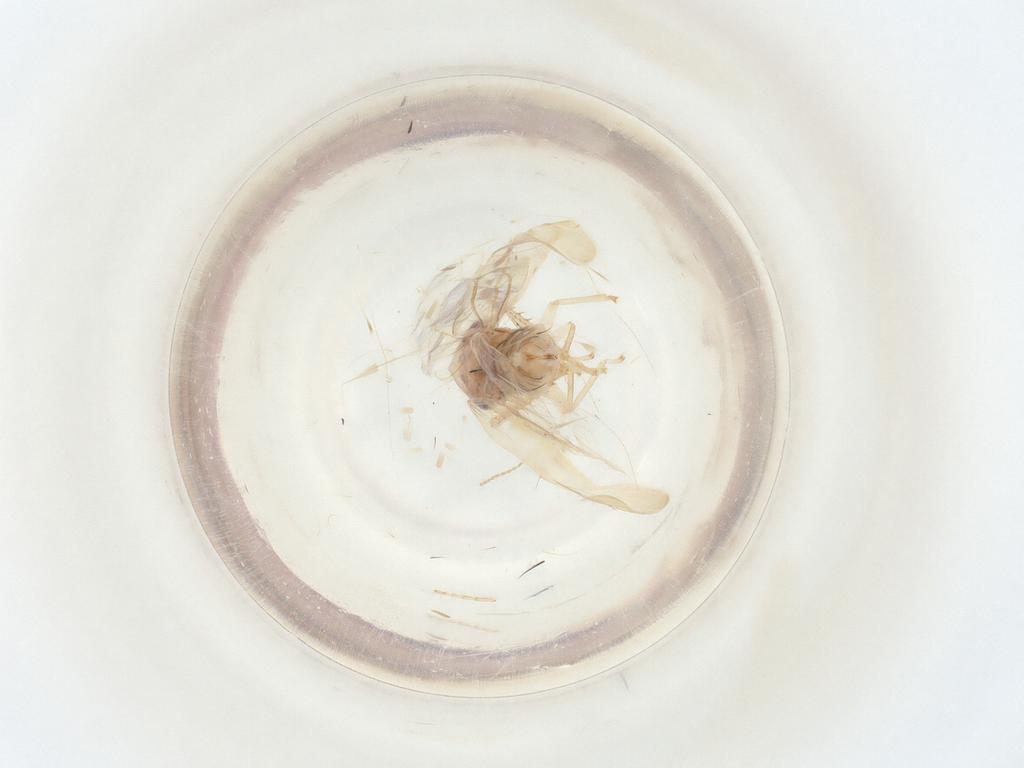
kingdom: Animalia
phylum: Arthropoda
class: Insecta
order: Hemiptera
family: Cicadellidae
